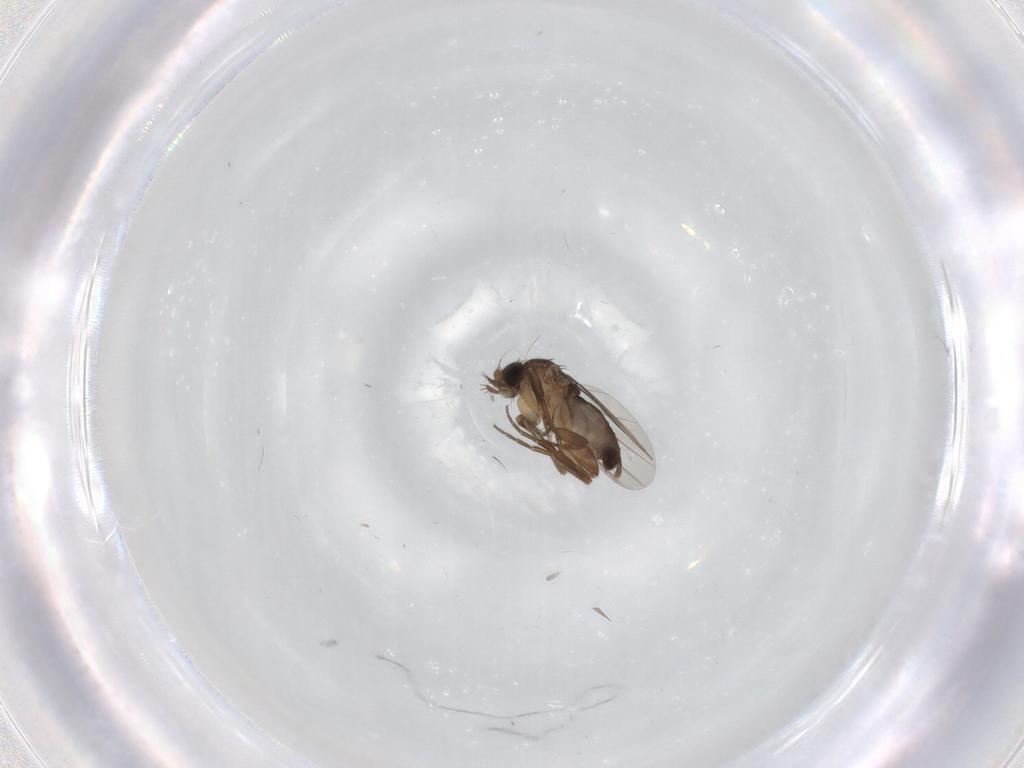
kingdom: Animalia
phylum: Arthropoda
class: Insecta
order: Diptera
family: Phoridae
